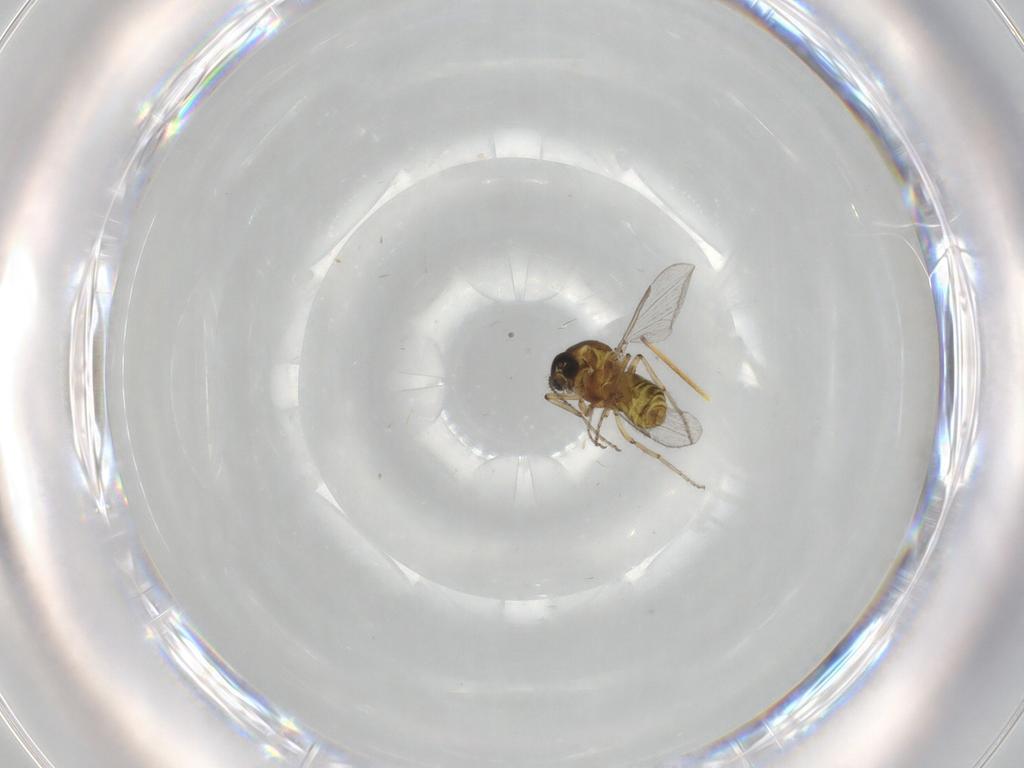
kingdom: Animalia
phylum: Arthropoda
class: Insecta
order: Diptera
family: Ceratopogonidae
